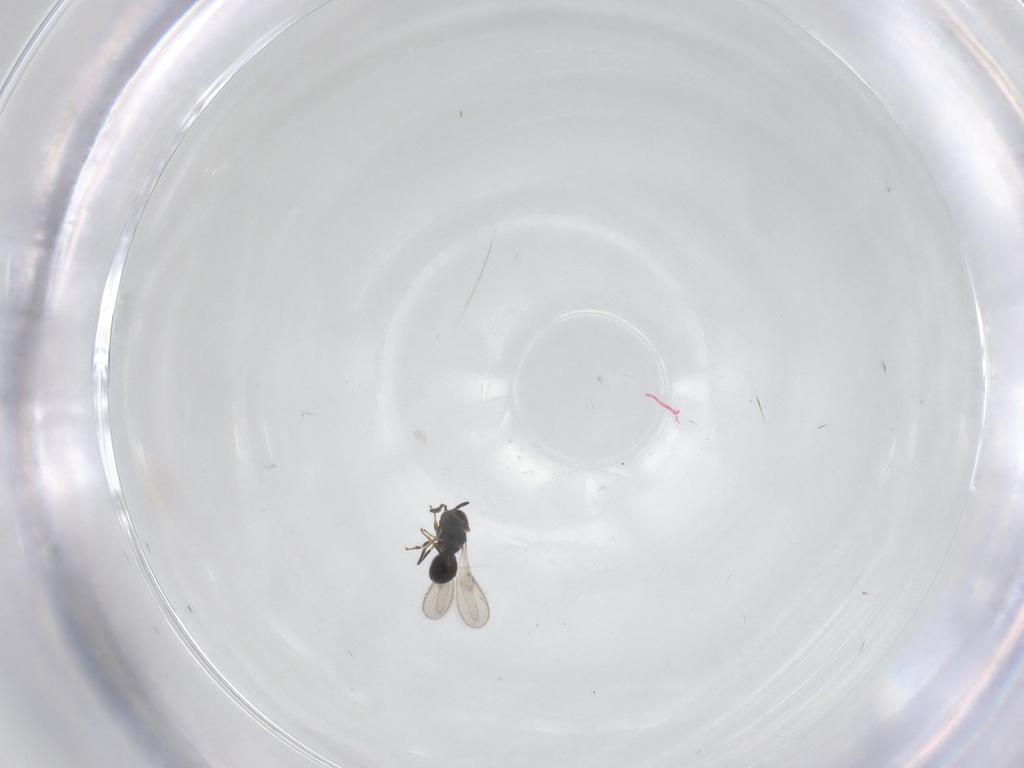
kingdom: Animalia
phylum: Arthropoda
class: Insecta
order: Hymenoptera
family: Scelionidae
